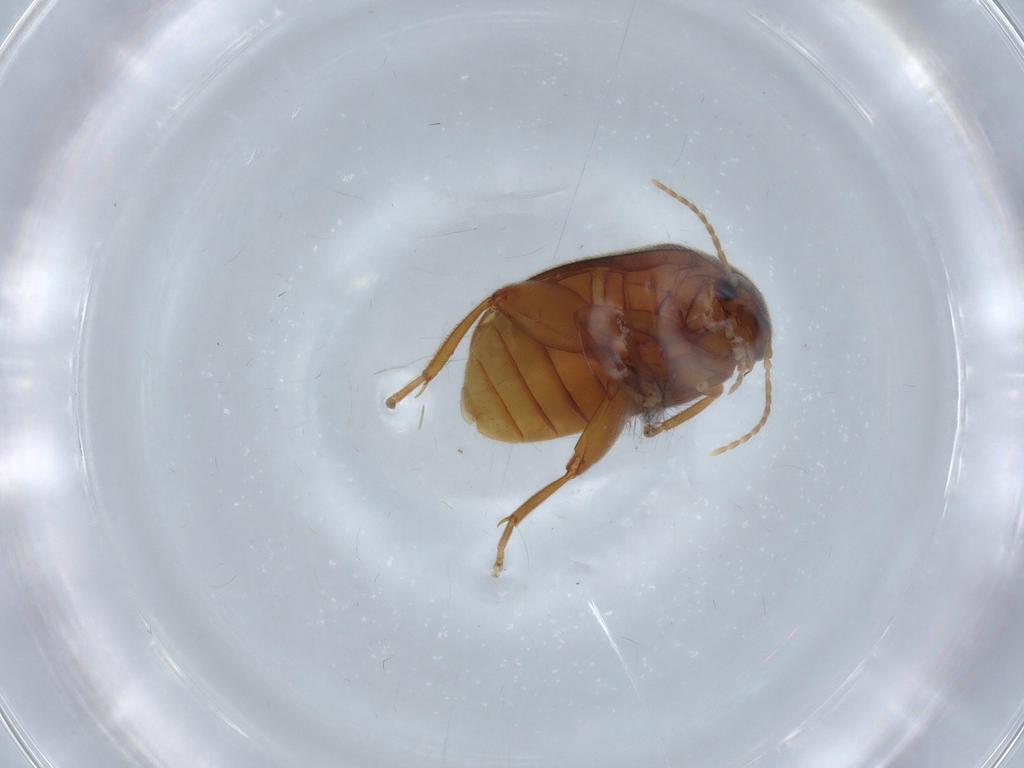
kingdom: Animalia
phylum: Arthropoda
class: Insecta
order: Coleoptera
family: Scirtidae
